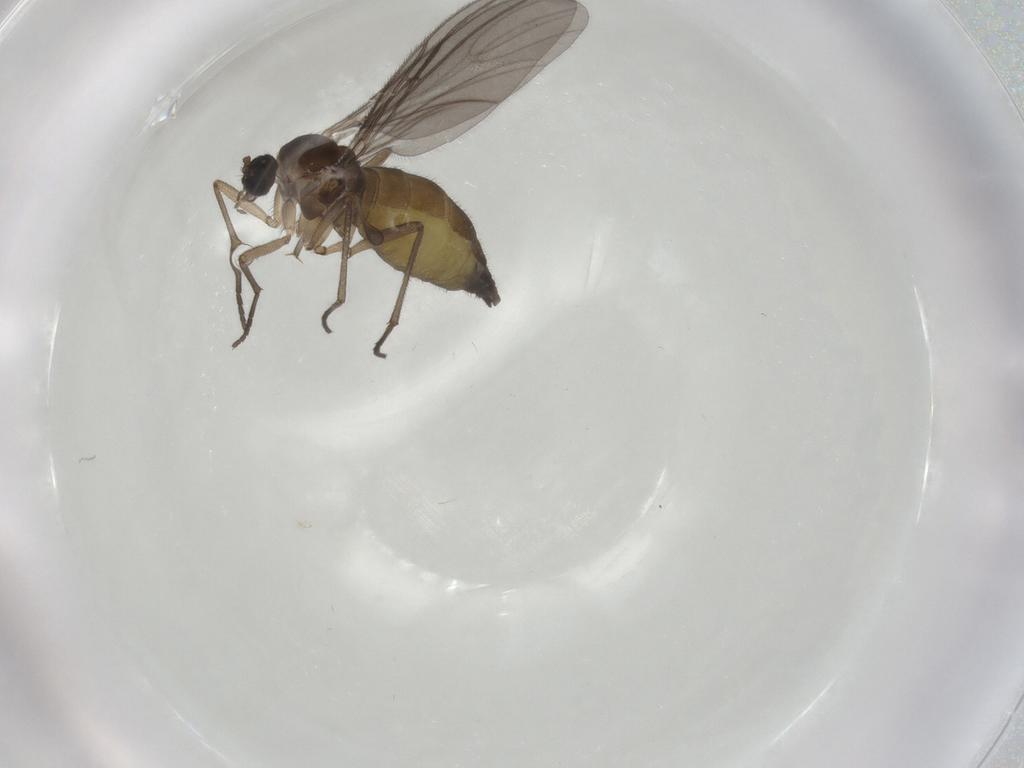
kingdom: Animalia
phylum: Arthropoda
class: Insecta
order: Diptera
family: Sciaridae
